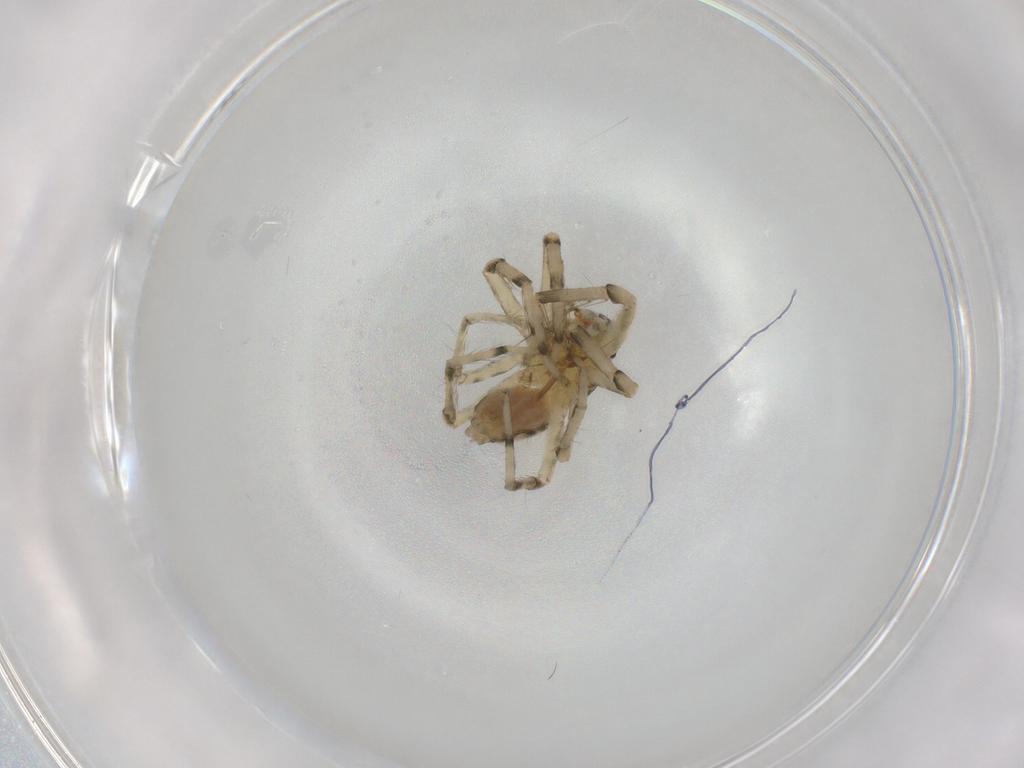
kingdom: Animalia
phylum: Arthropoda
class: Arachnida
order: Araneae
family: Senoculidae
